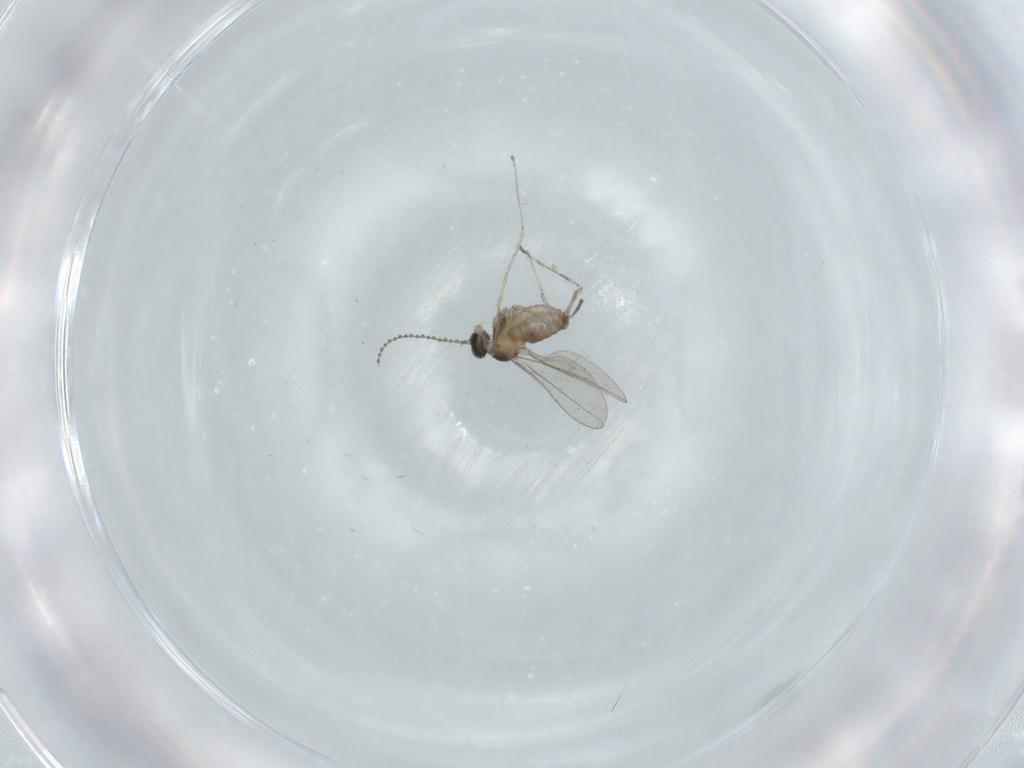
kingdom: Animalia
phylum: Arthropoda
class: Insecta
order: Diptera
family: Cecidomyiidae
